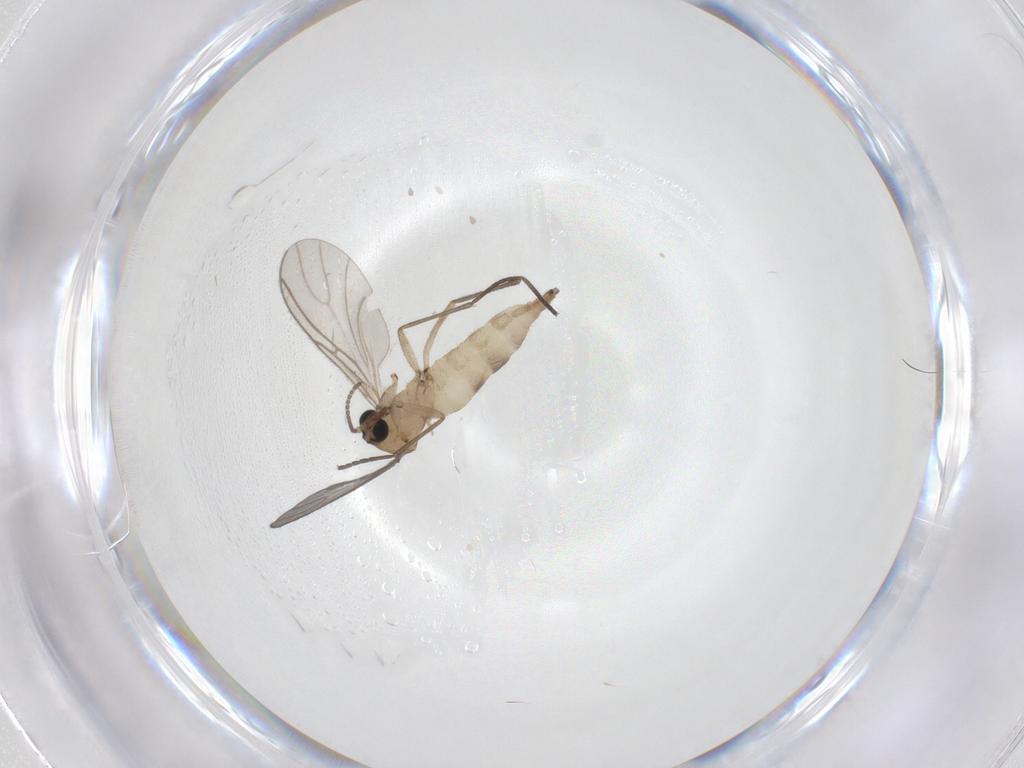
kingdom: Animalia
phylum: Arthropoda
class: Insecta
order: Diptera
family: Sciaridae
